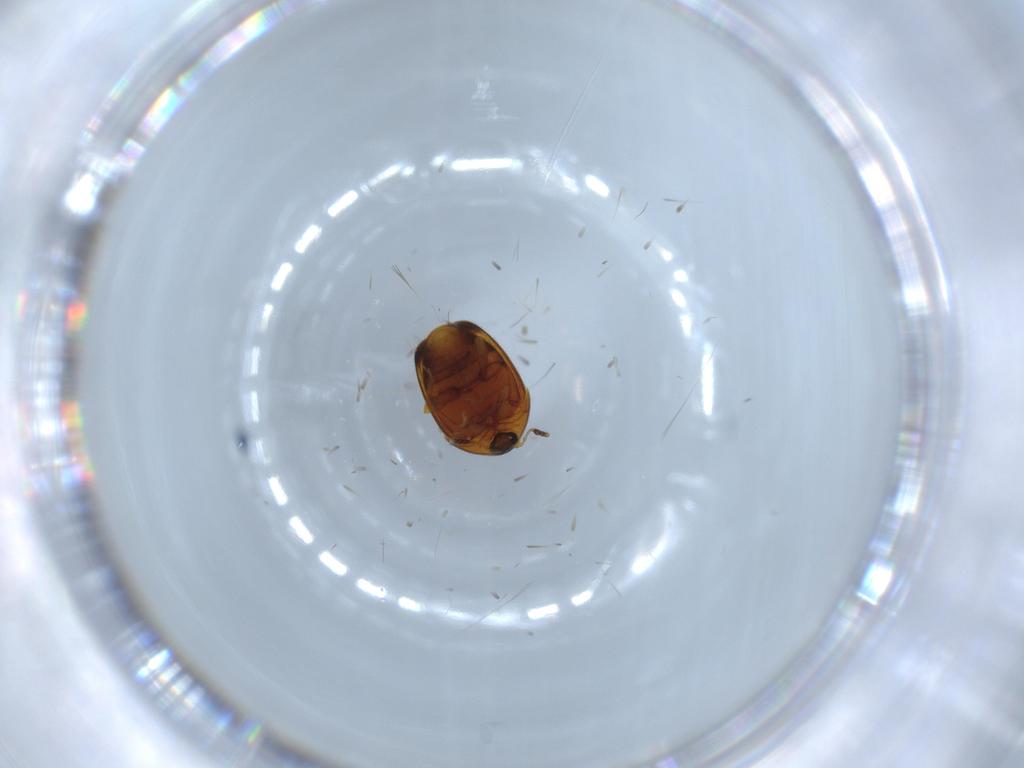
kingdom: Animalia
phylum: Arthropoda
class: Insecta
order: Coleoptera
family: Corylophidae
